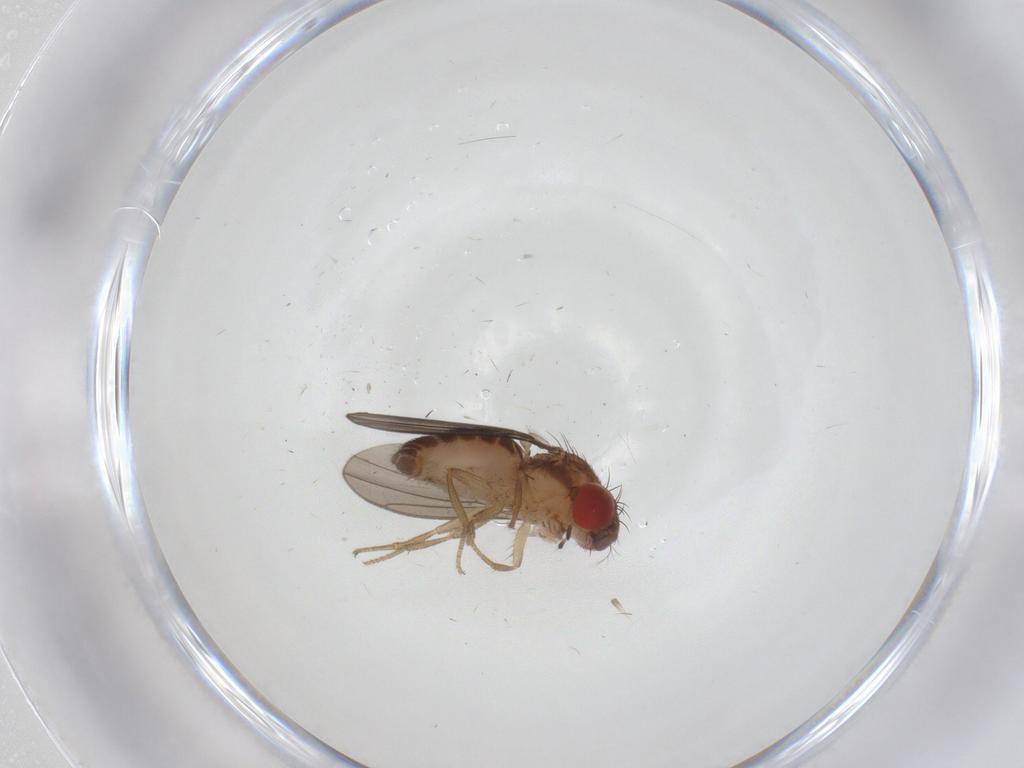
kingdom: Animalia
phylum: Arthropoda
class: Insecta
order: Diptera
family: Drosophilidae
